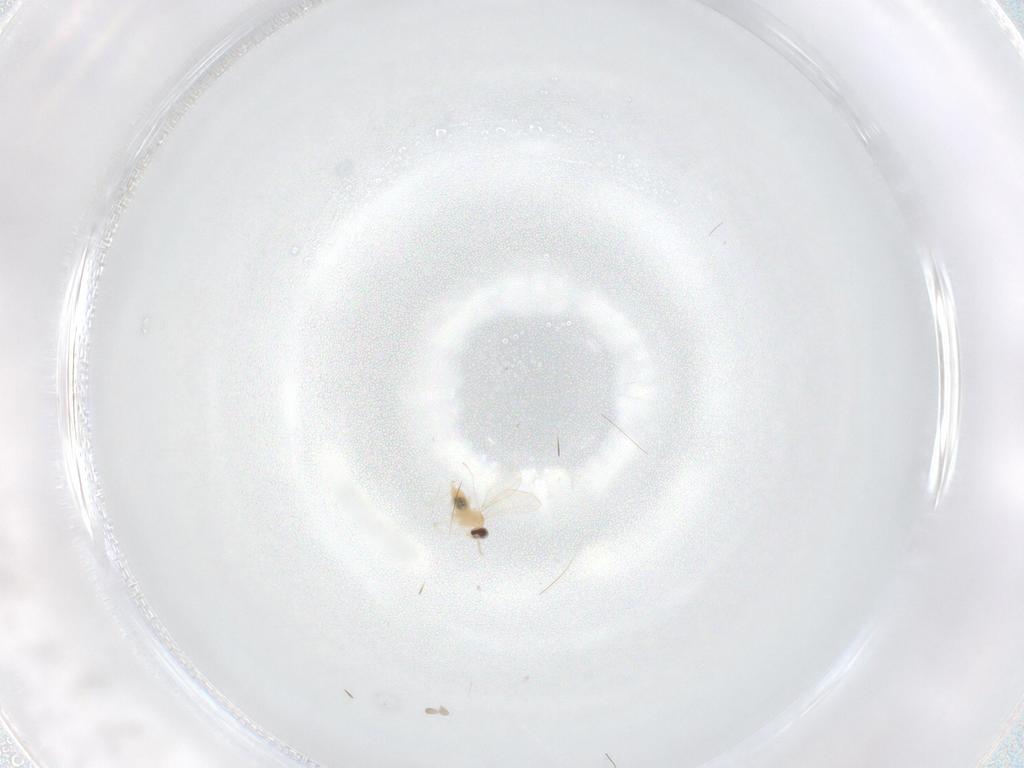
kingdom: Animalia
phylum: Arthropoda
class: Insecta
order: Diptera
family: Cecidomyiidae
